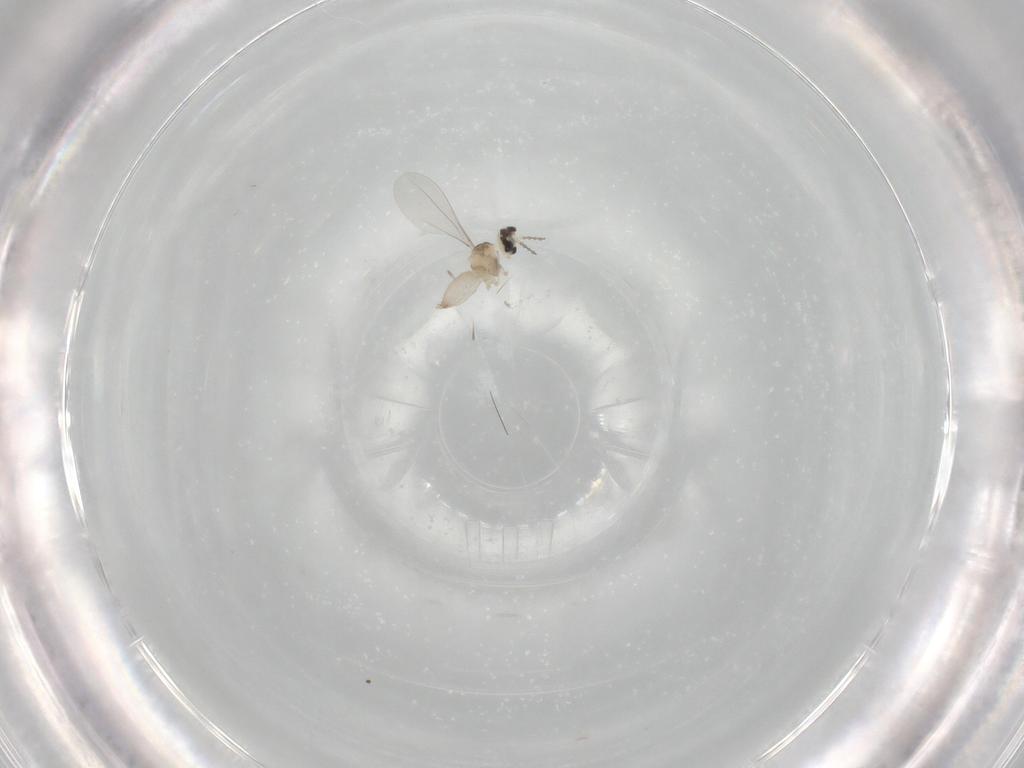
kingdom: Animalia
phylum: Arthropoda
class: Insecta
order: Diptera
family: Cecidomyiidae
